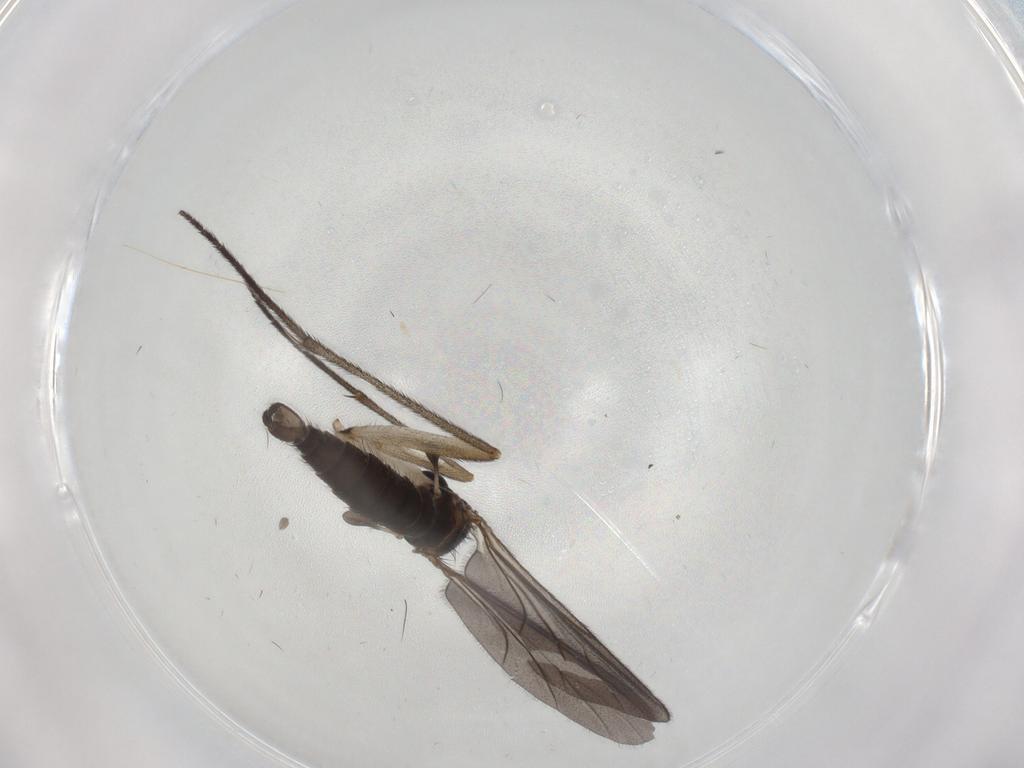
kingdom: Animalia
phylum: Arthropoda
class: Insecta
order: Diptera
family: Sciaridae
